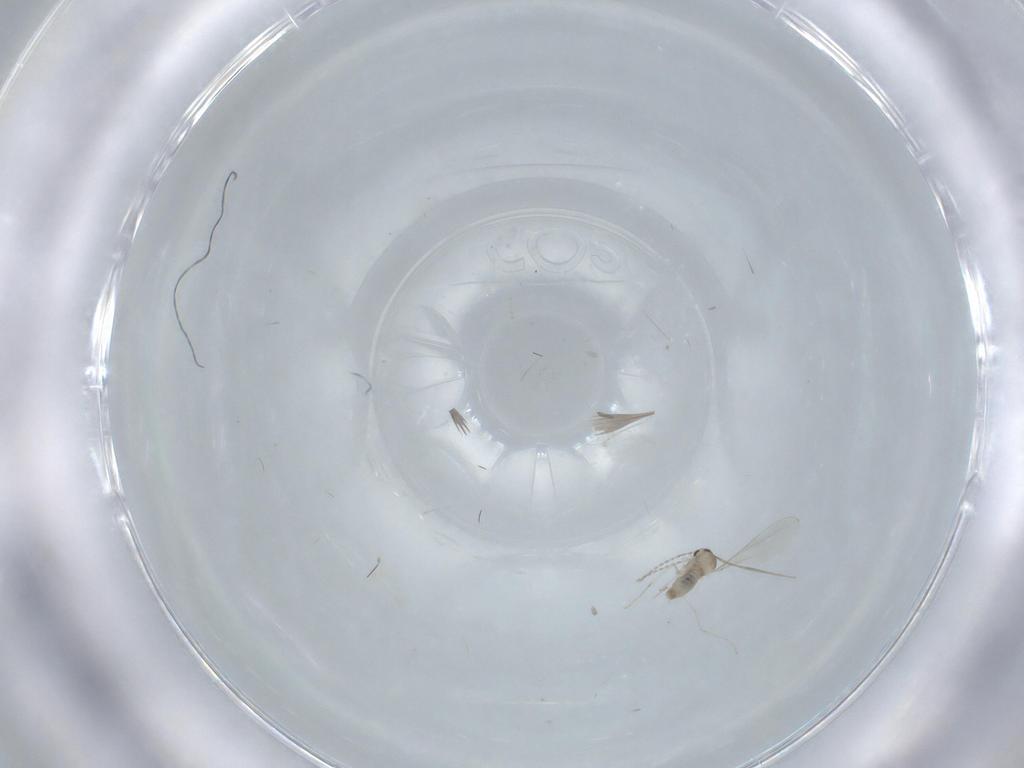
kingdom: Animalia
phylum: Arthropoda
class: Insecta
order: Diptera
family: Cecidomyiidae
